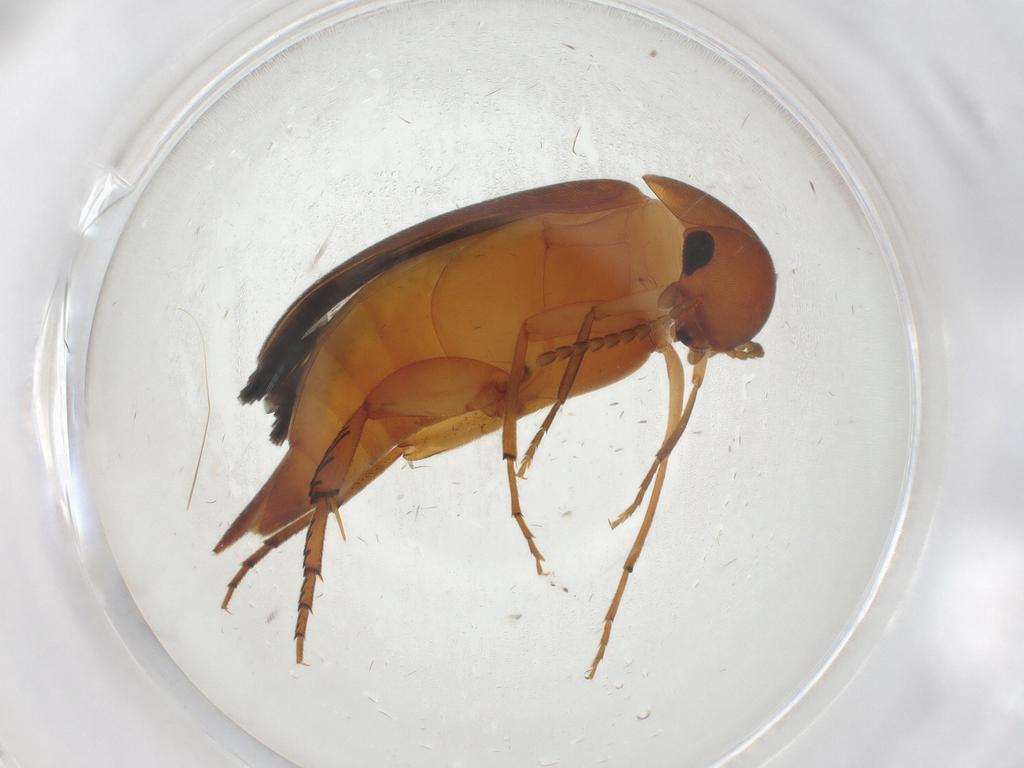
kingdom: Animalia
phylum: Arthropoda
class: Insecta
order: Coleoptera
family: Mordellidae
